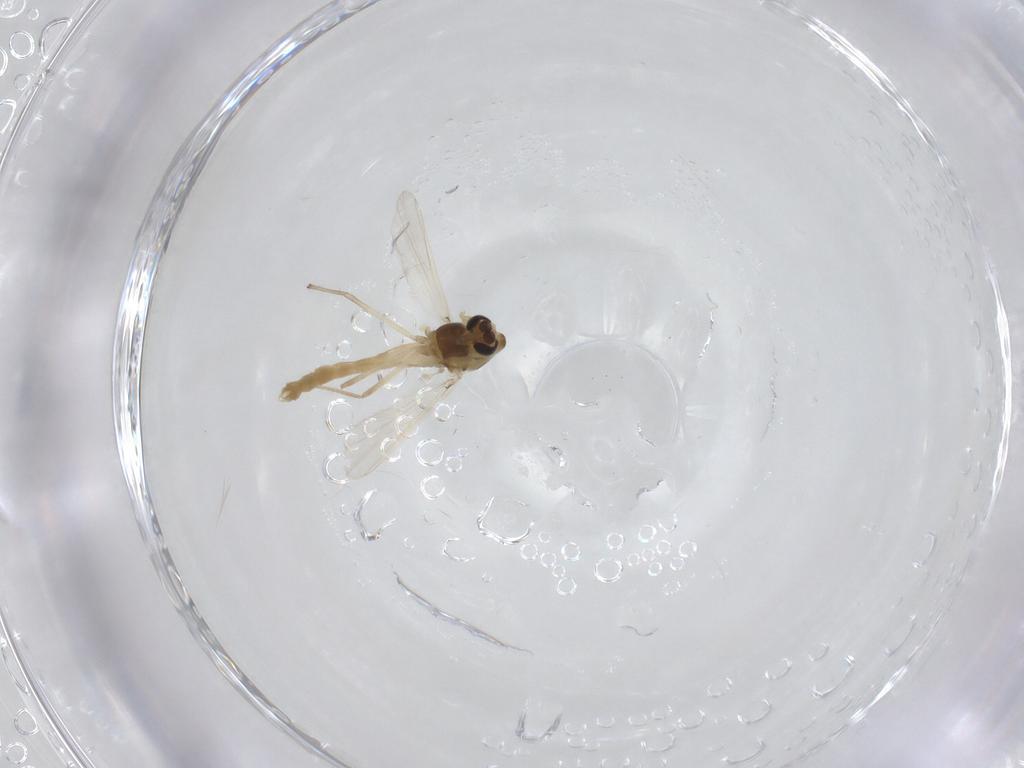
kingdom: Animalia
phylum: Arthropoda
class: Insecta
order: Diptera
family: Chironomidae
